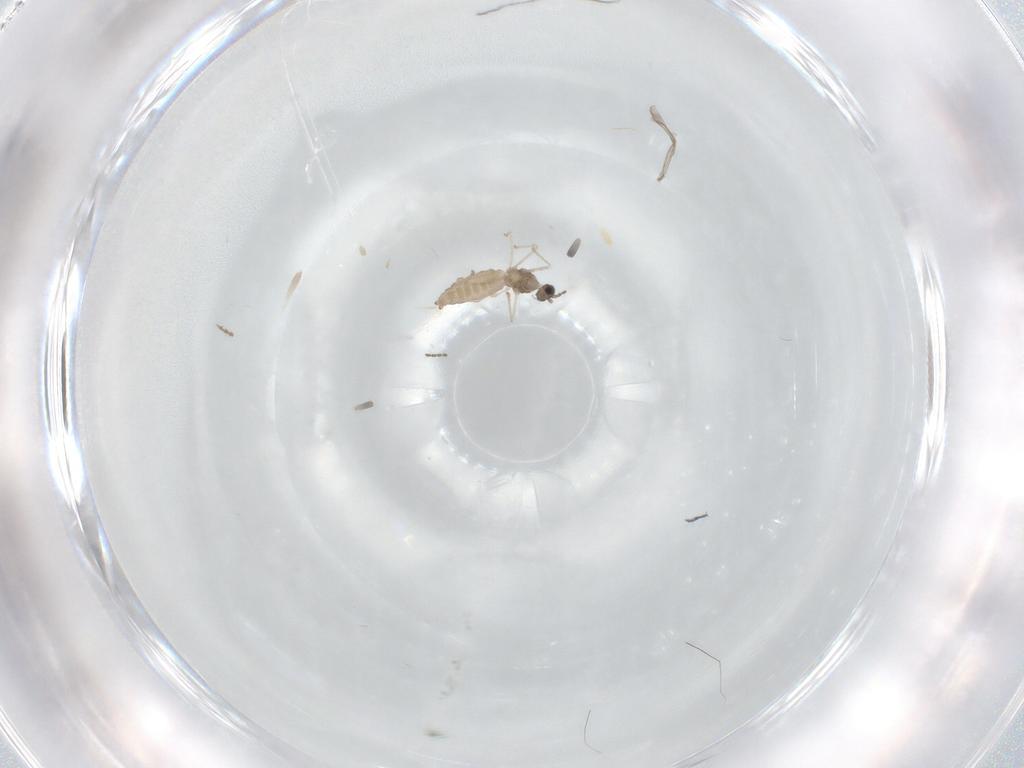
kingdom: Animalia
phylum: Arthropoda
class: Insecta
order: Diptera
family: Cecidomyiidae
